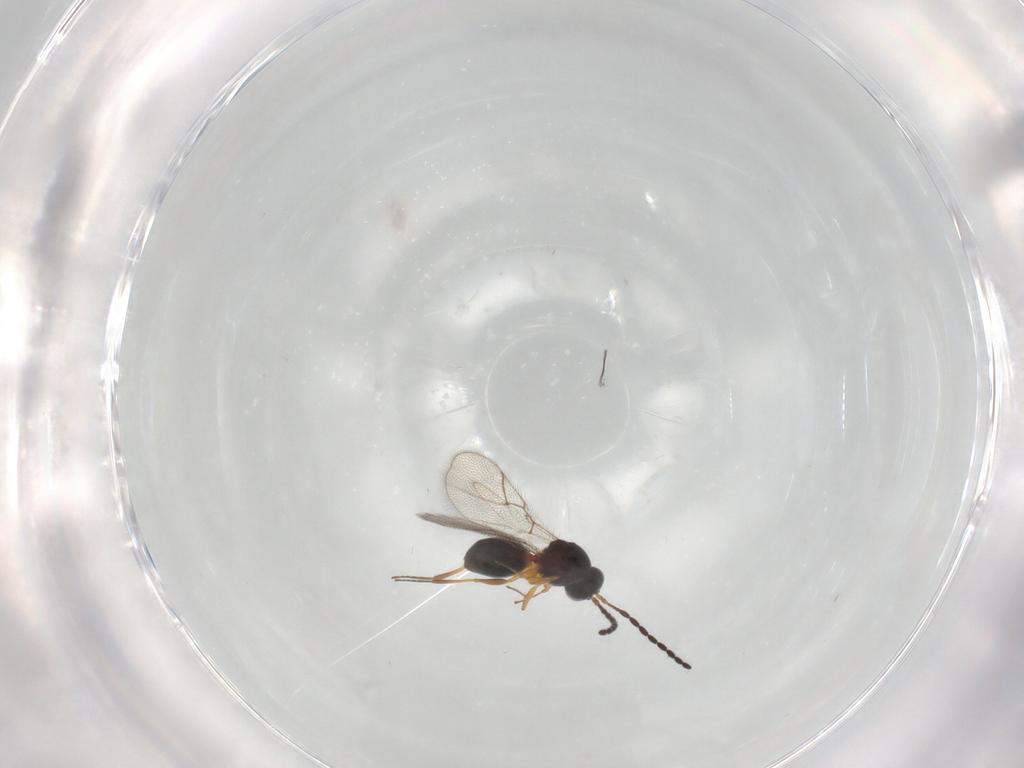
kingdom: Animalia
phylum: Arthropoda
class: Insecta
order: Hymenoptera
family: Figitidae
